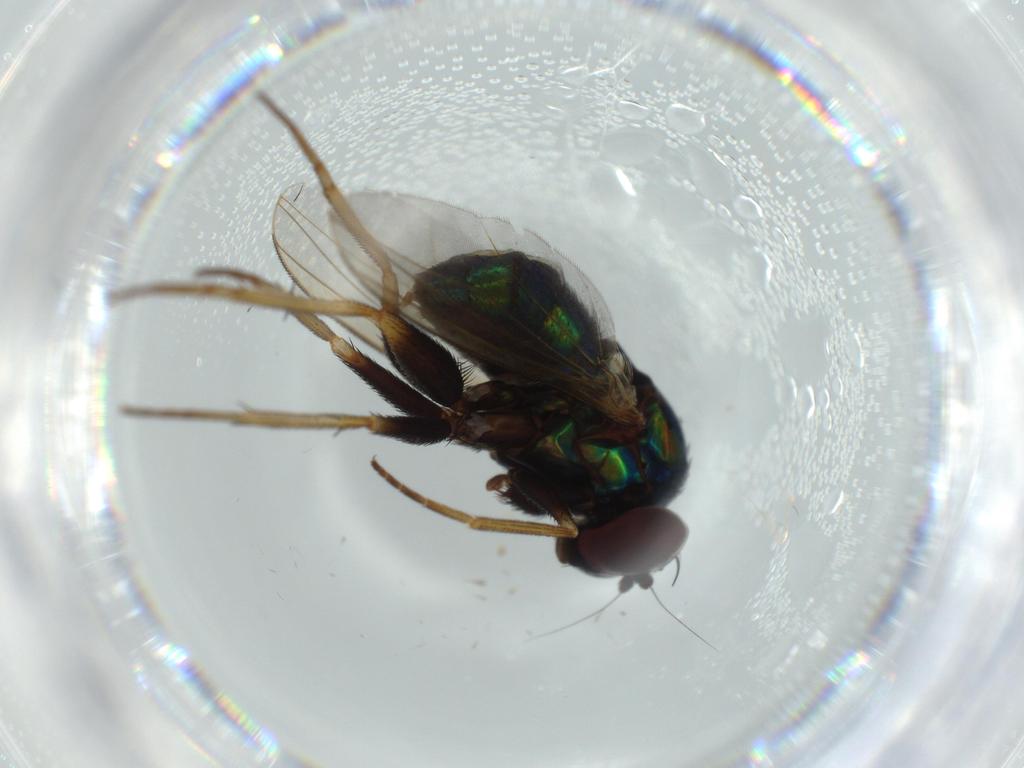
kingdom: Animalia
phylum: Arthropoda
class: Insecta
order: Diptera
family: Dolichopodidae
